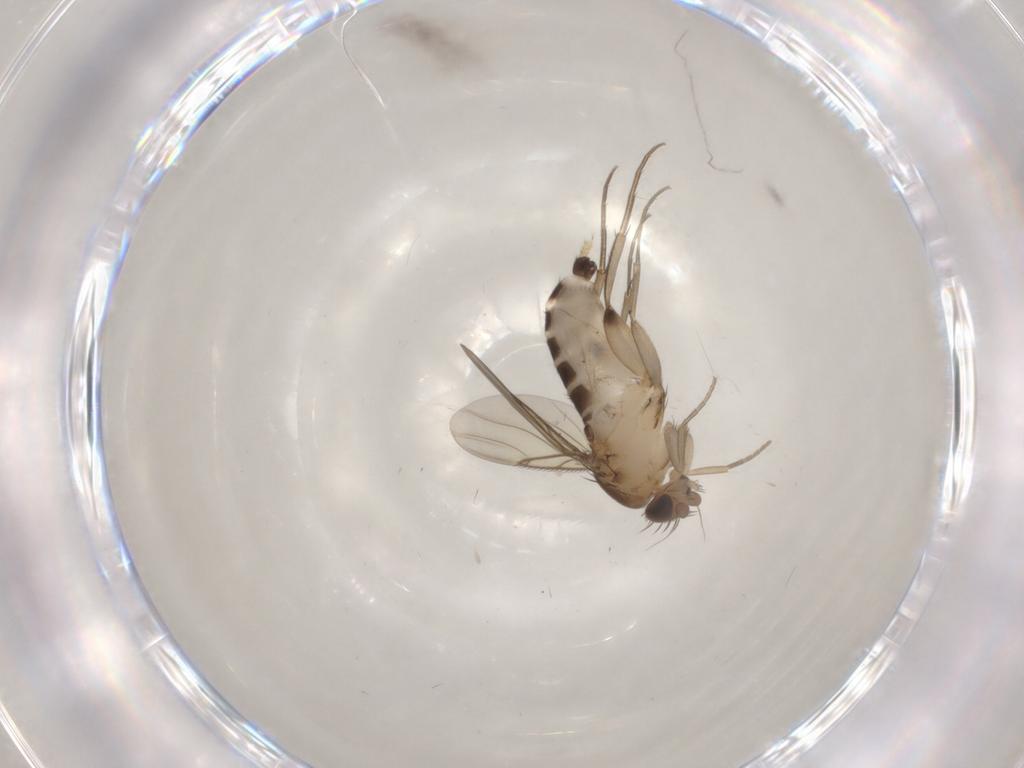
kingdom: Animalia
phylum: Arthropoda
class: Insecta
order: Diptera
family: Phoridae
